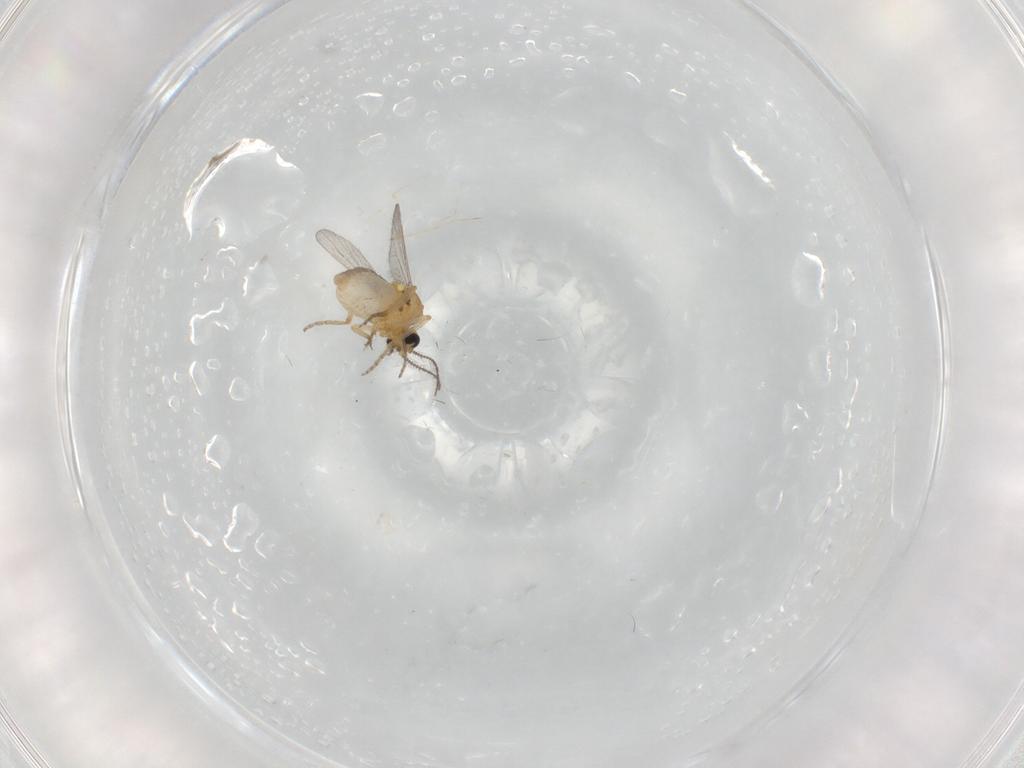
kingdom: Animalia
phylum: Arthropoda
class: Insecta
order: Diptera
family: Ceratopogonidae
